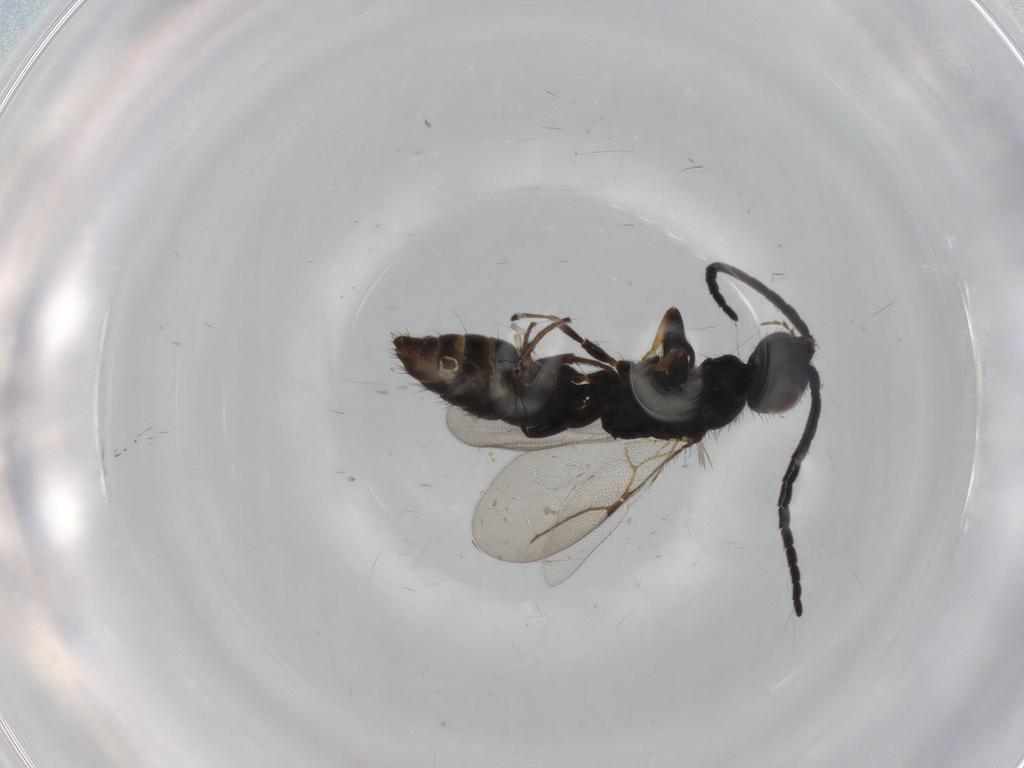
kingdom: Animalia
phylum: Arthropoda
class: Insecta
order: Hymenoptera
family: Bethylidae
